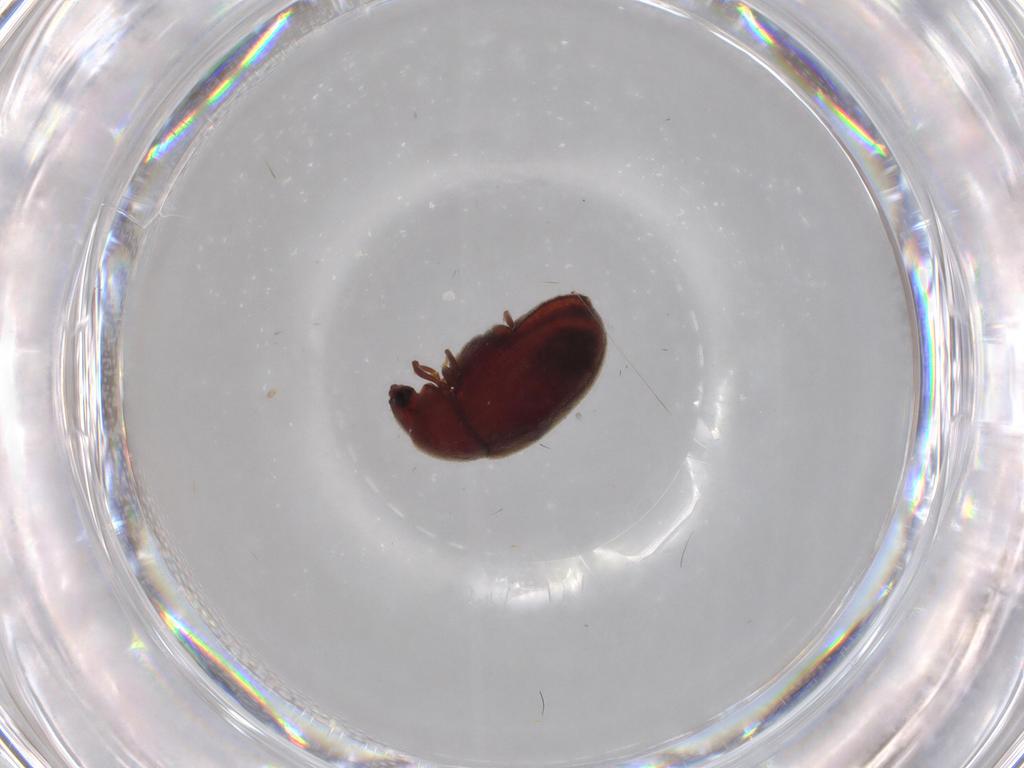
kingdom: Animalia
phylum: Arthropoda
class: Insecta
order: Coleoptera
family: Ptinidae
